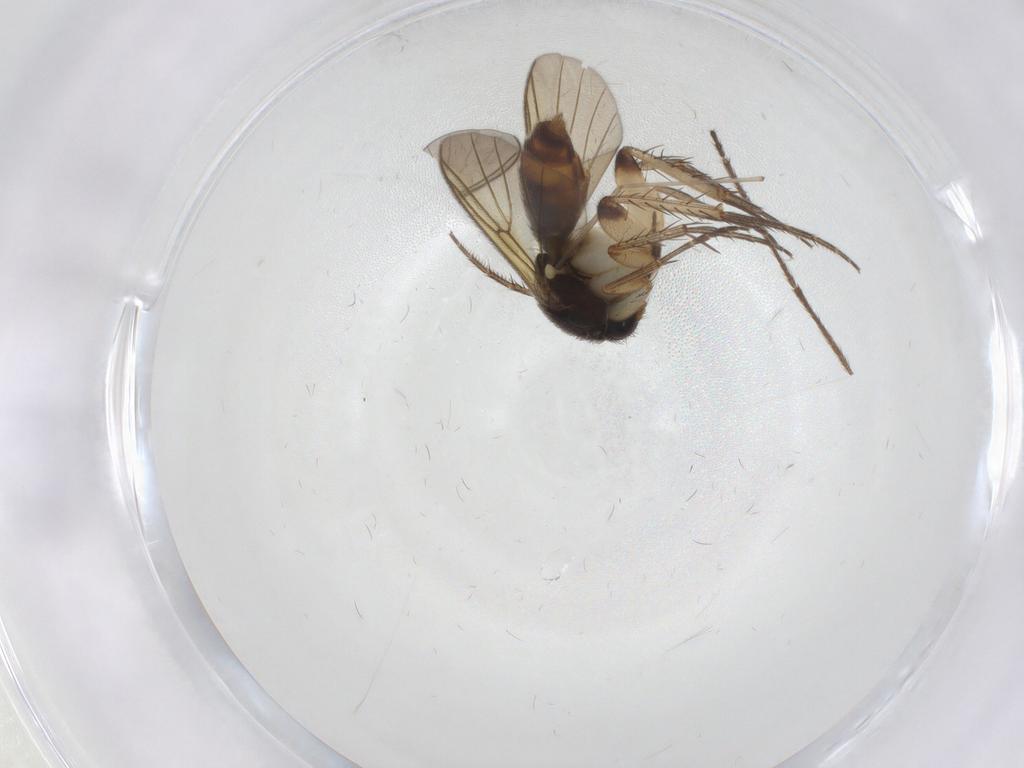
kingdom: Animalia
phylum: Arthropoda
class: Insecta
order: Diptera
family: Mycetophilidae
